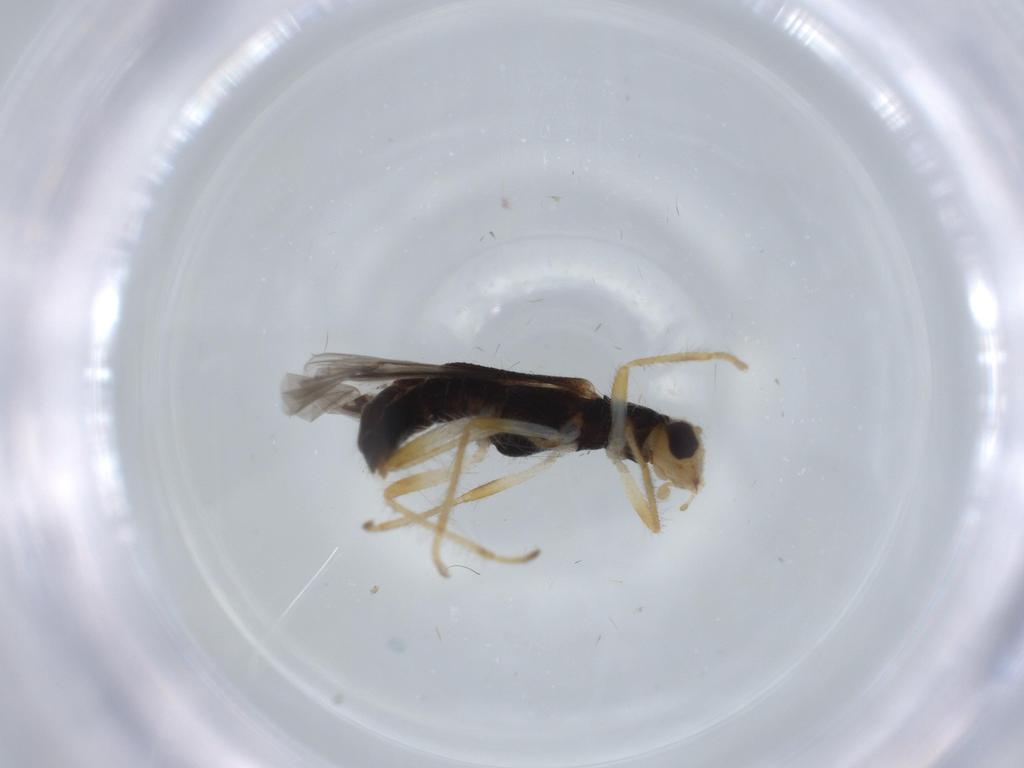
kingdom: Animalia
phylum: Arthropoda
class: Insecta
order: Coleoptera
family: Cleridae
